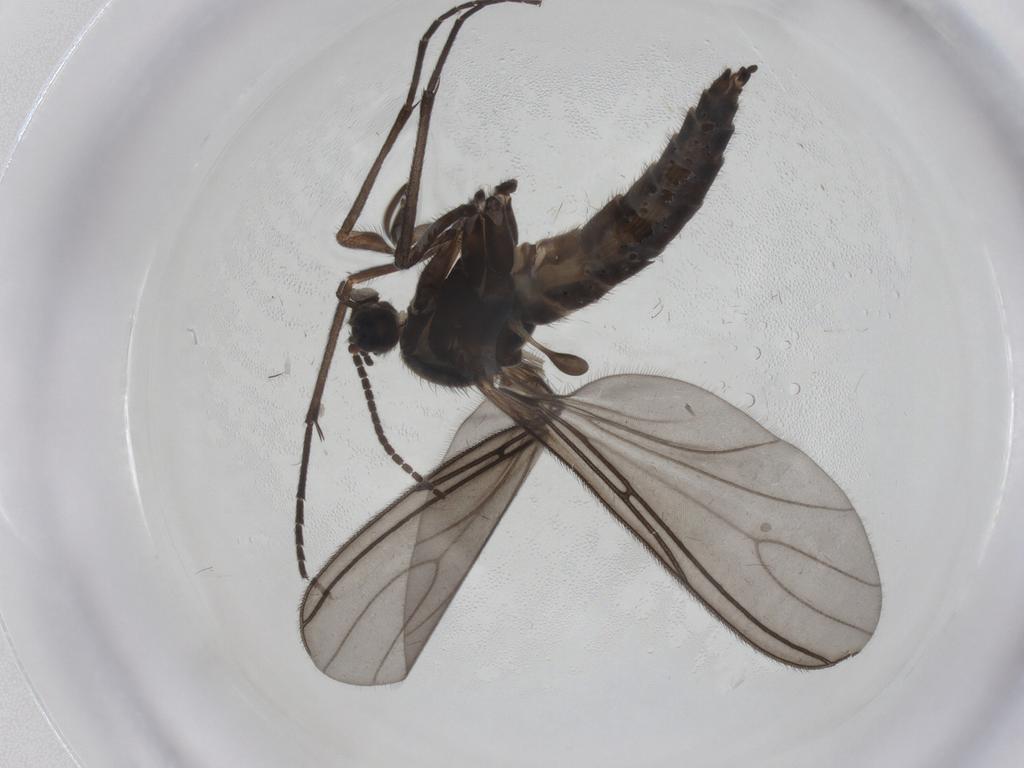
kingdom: Animalia
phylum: Arthropoda
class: Insecta
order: Diptera
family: Sciaridae
